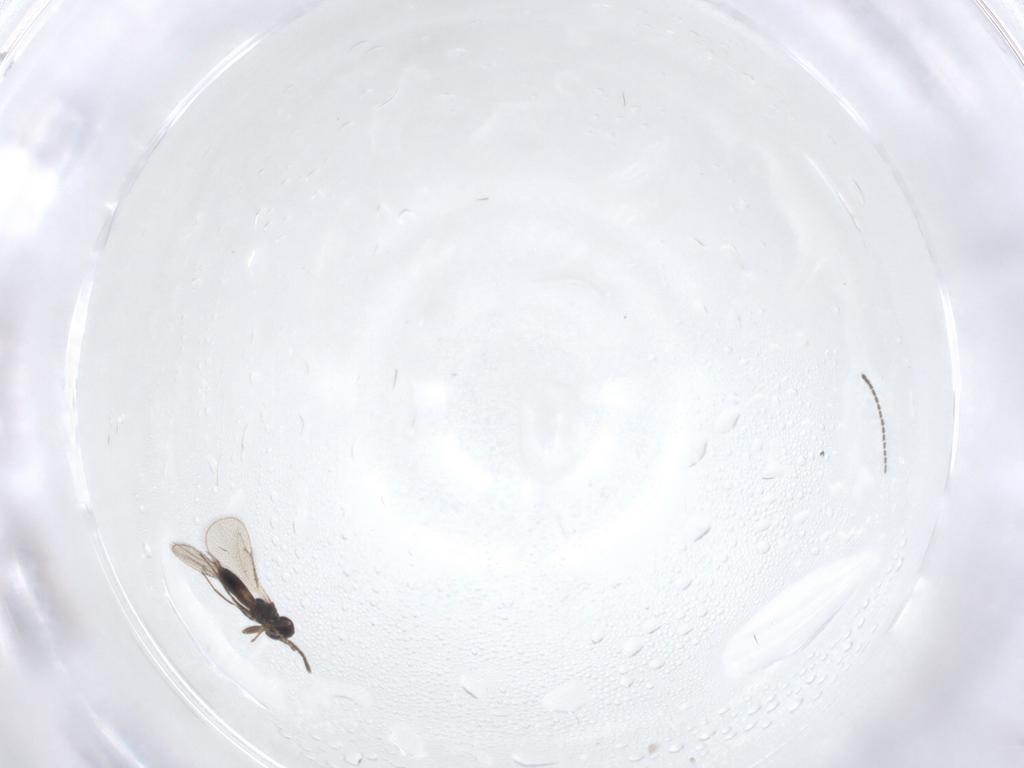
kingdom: Animalia
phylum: Arthropoda
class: Insecta
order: Hymenoptera
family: Eulophidae
